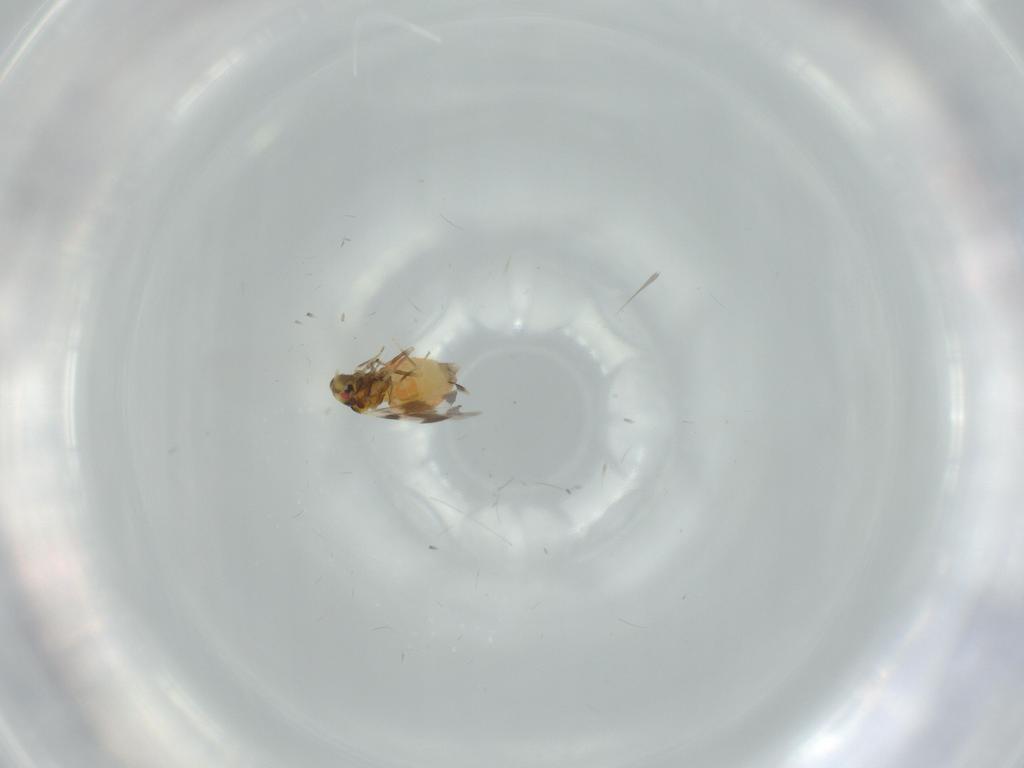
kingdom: Animalia
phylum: Arthropoda
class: Insecta
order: Hemiptera
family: Aleyrodidae
